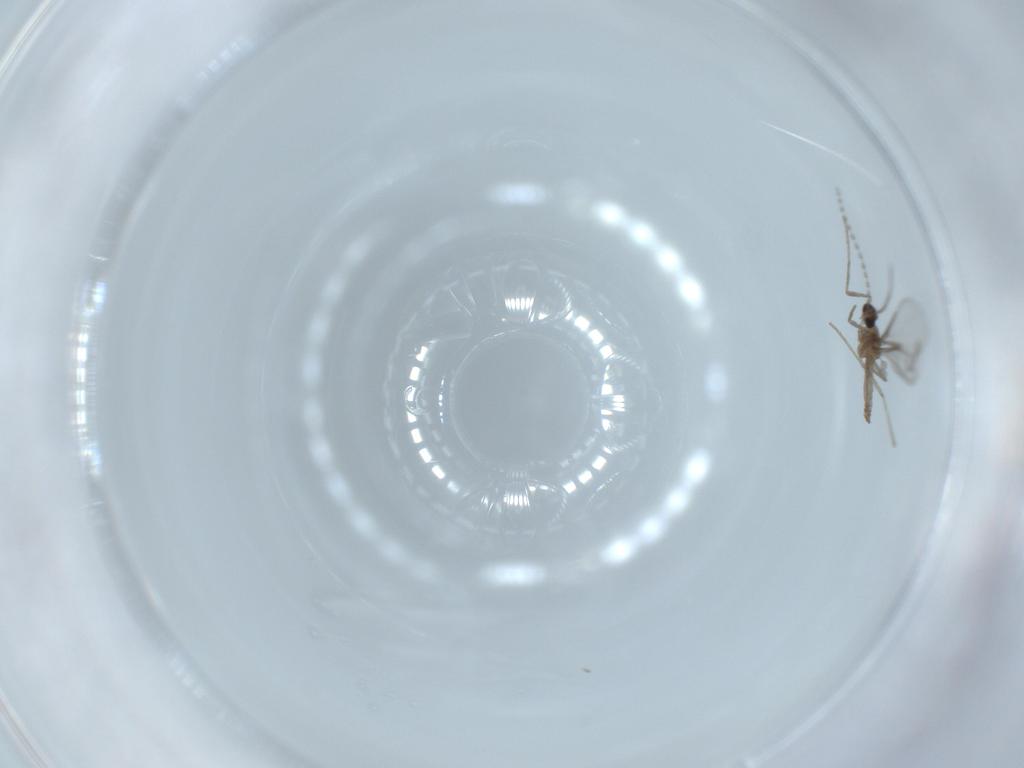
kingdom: Animalia
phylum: Arthropoda
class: Insecta
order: Diptera
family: Cecidomyiidae
